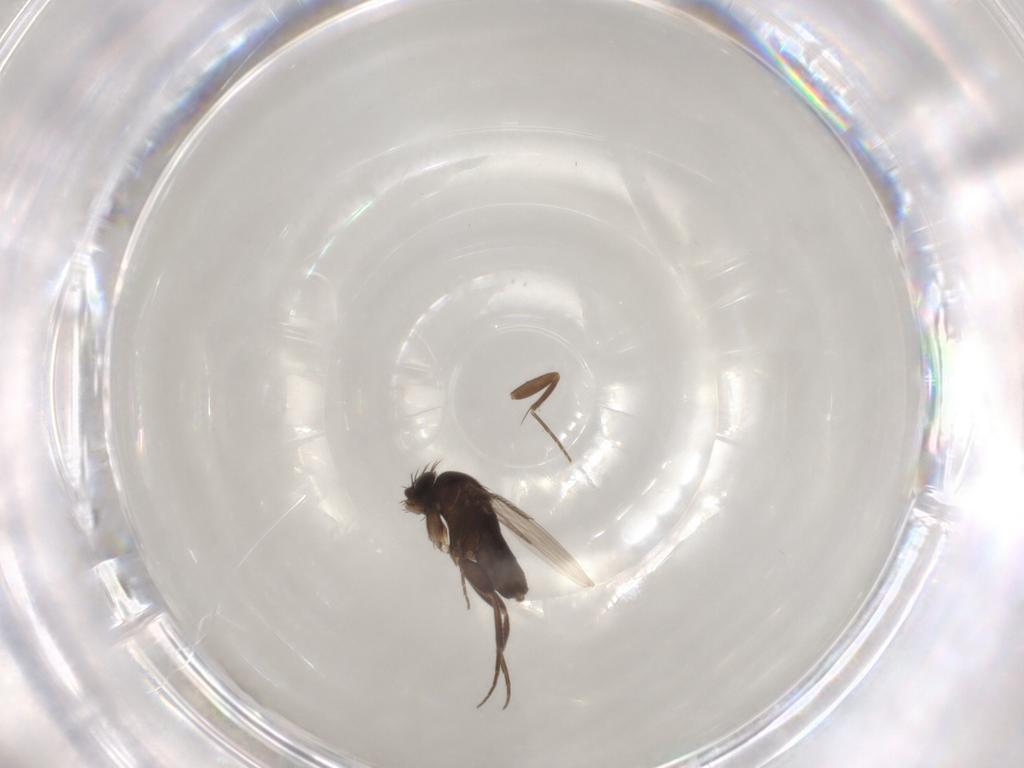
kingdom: Animalia
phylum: Arthropoda
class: Insecta
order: Diptera
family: Phoridae
